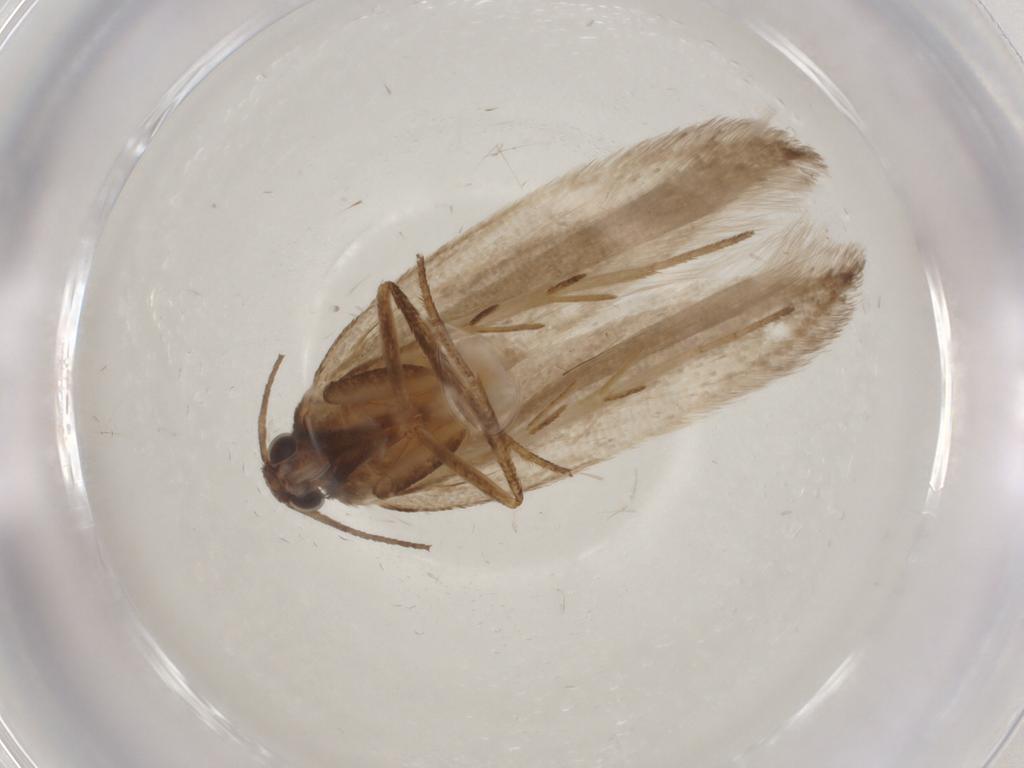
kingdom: Animalia
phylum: Arthropoda
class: Insecta
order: Lepidoptera
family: Gelechiidae
